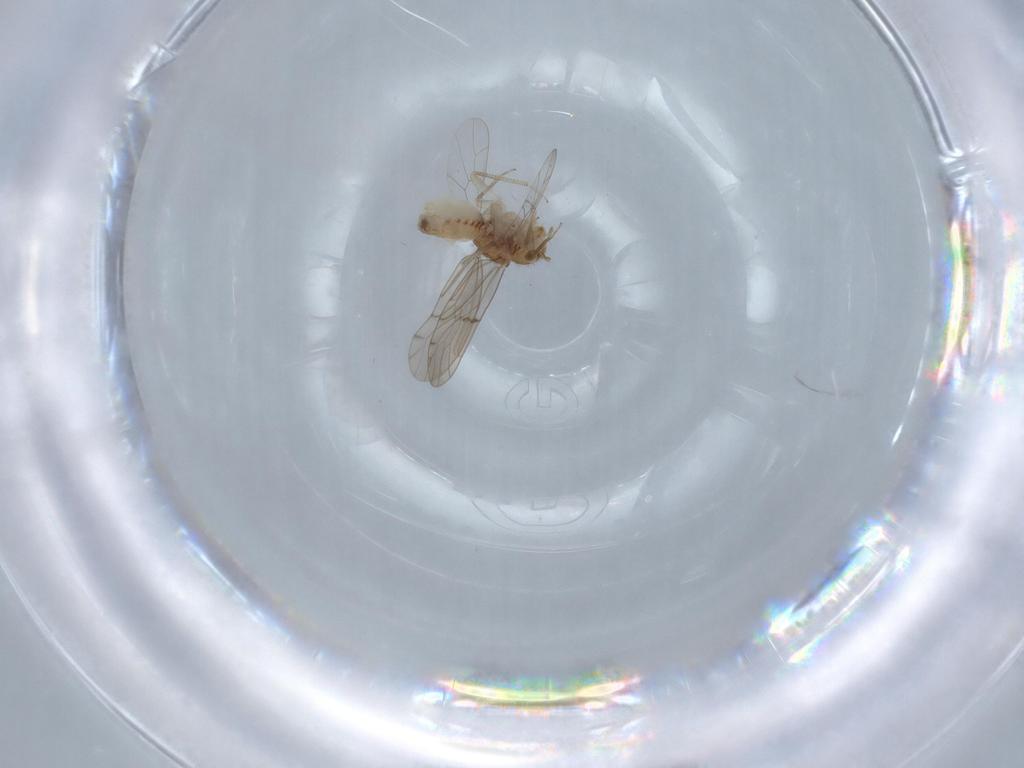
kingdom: Animalia
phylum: Arthropoda
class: Insecta
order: Psocodea
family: Ectopsocidae
